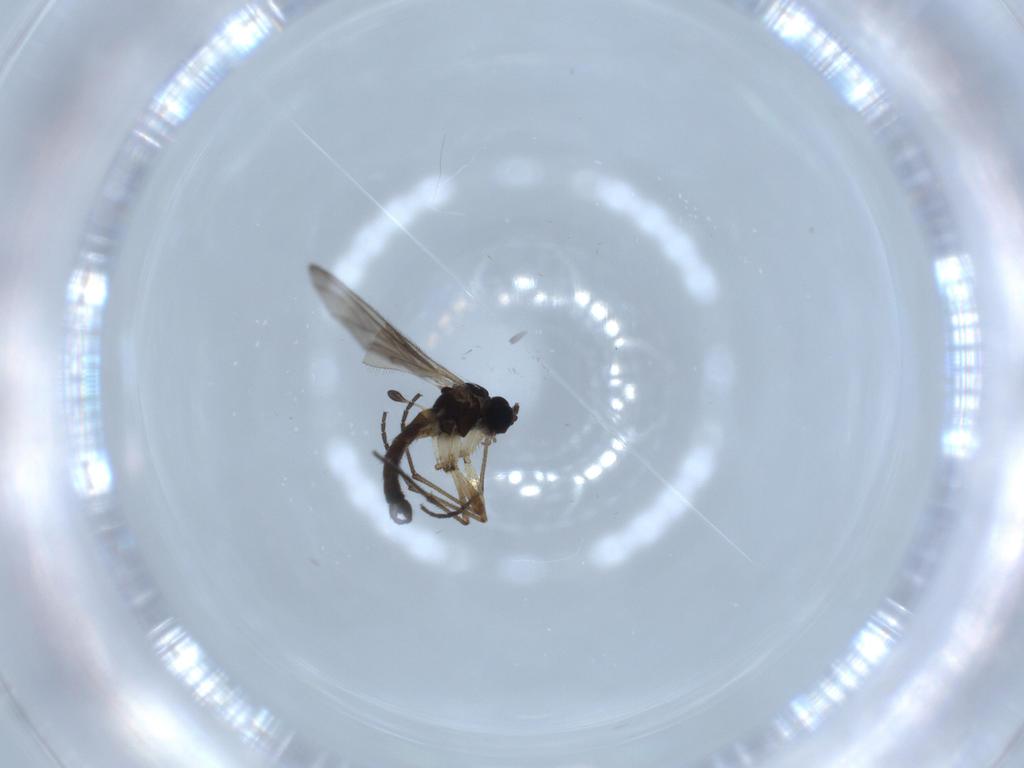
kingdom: Animalia
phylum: Arthropoda
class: Insecta
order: Diptera
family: Sciaridae
